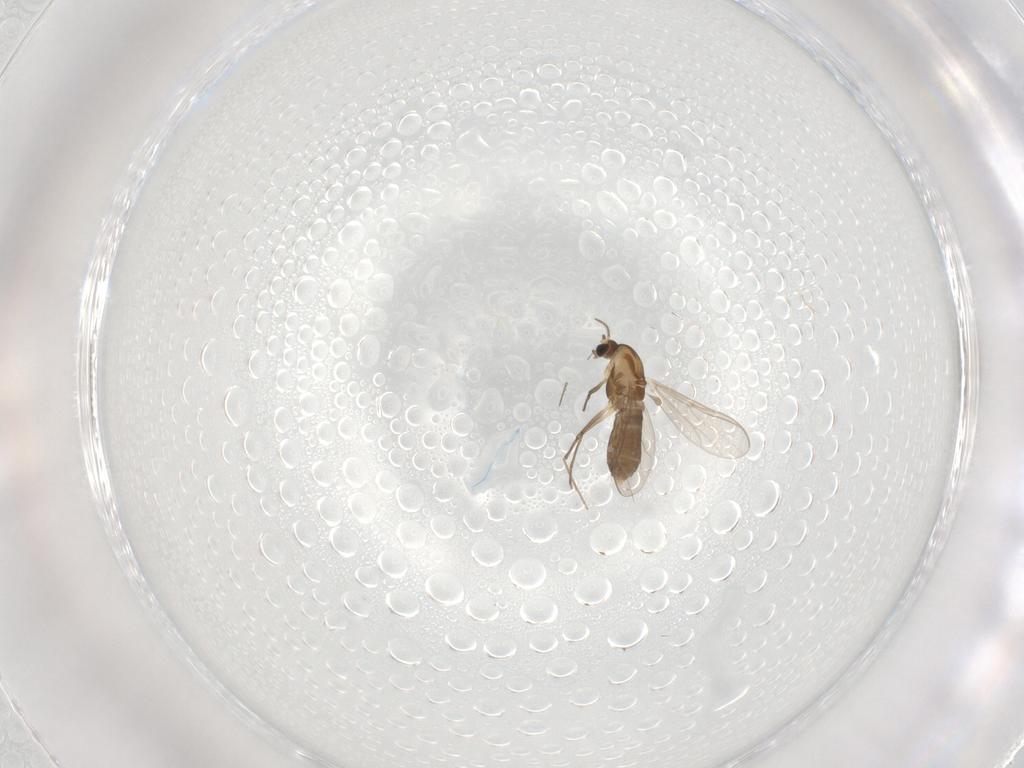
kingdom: Animalia
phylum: Arthropoda
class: Insecta
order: Diptera
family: Chironomidae
